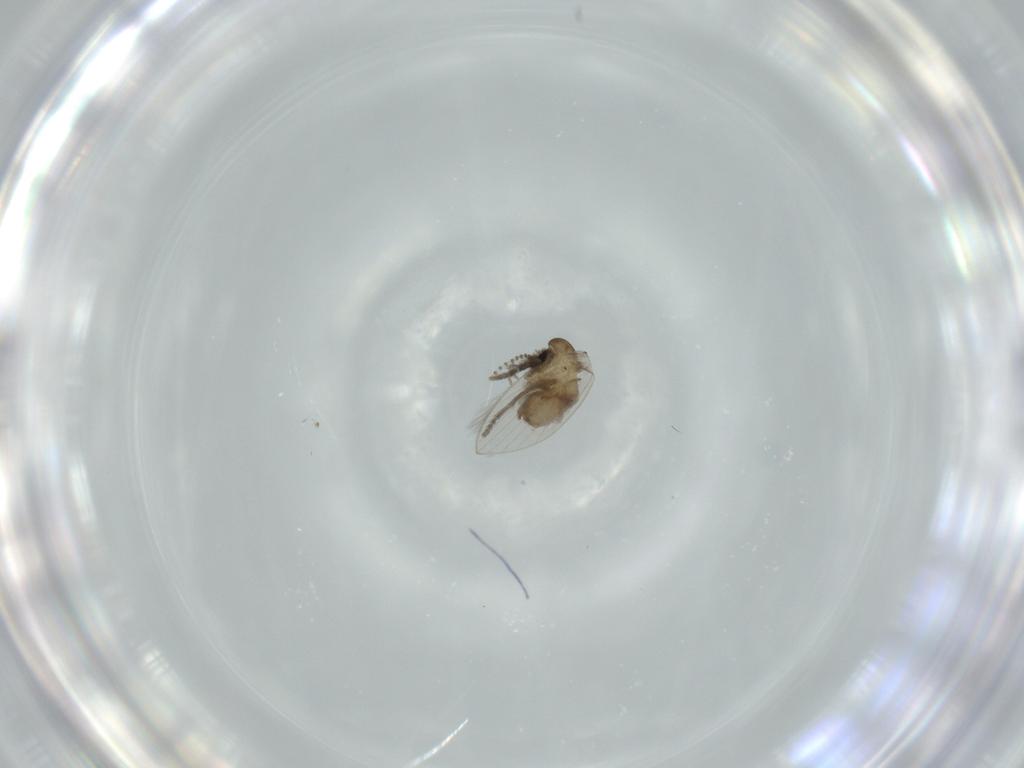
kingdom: Animalia
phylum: Arthropoda
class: Insecta
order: Diptera
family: Psychodidae
